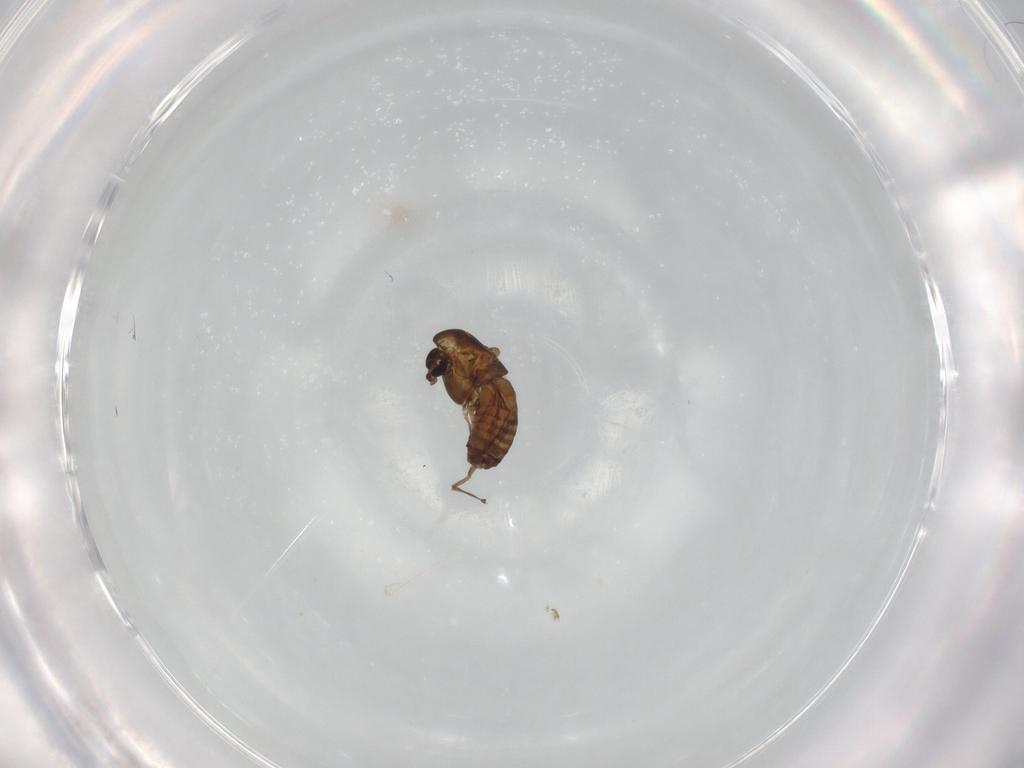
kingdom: Animalia
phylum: Arthropoda
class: Insecta
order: Diptera
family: Chironomidae
